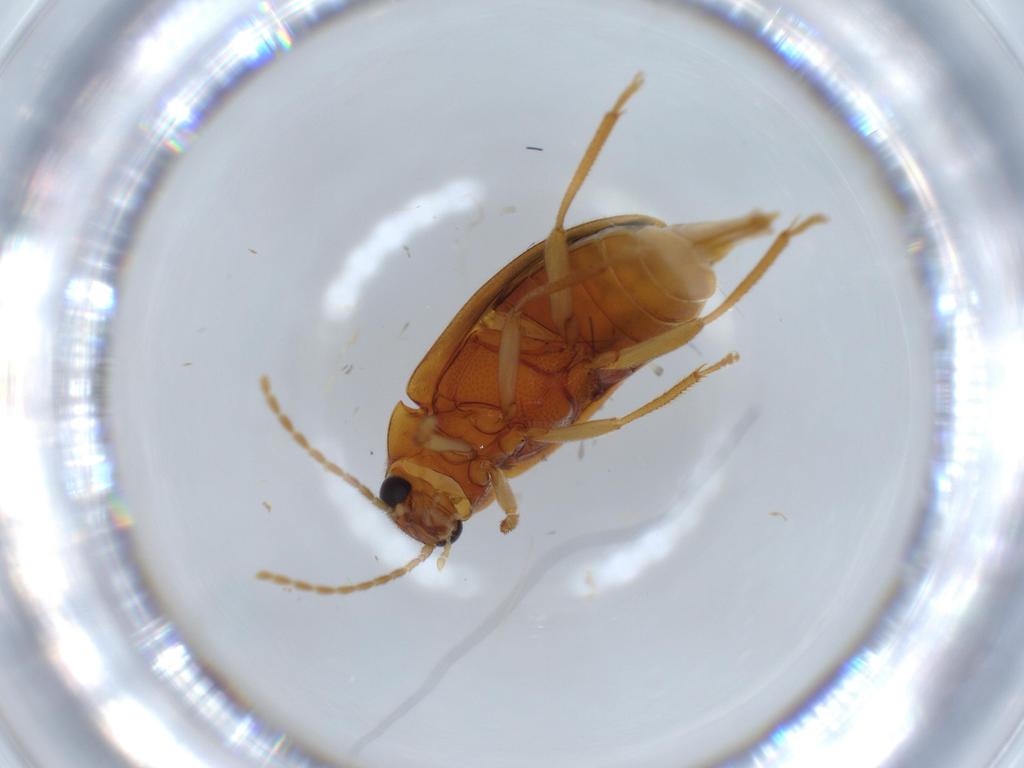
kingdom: Animalia
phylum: Arthropoda
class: Insecta
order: Coleoptera
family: Ptilodactylidae
